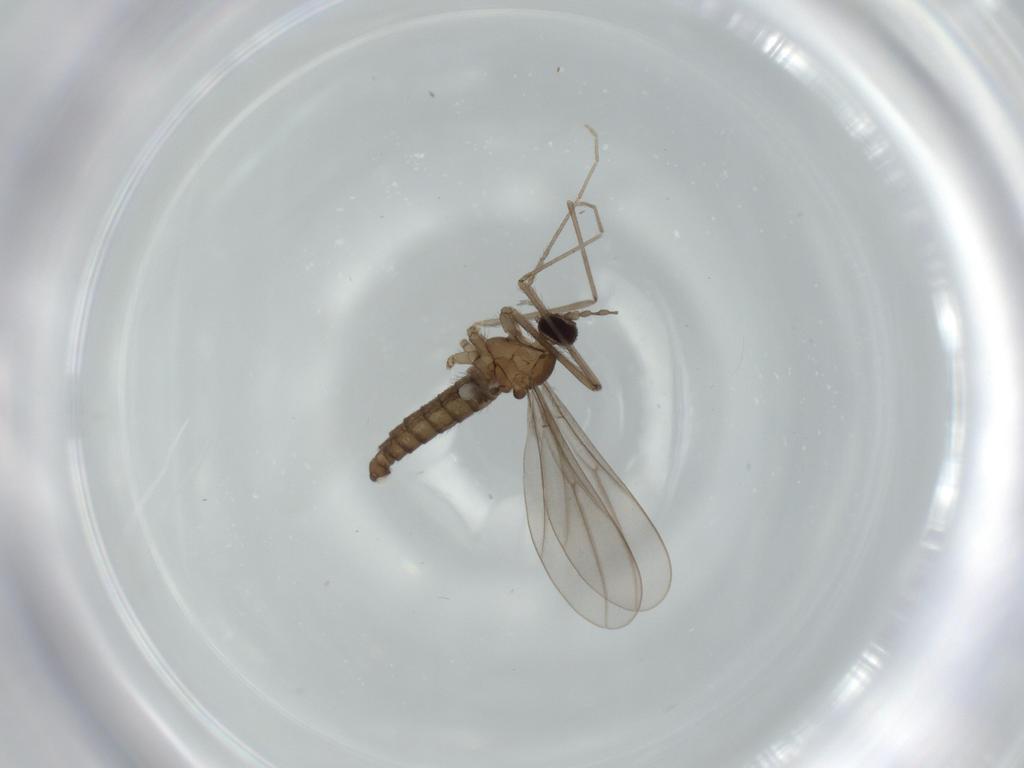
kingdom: Animalia
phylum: Arthropoda
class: Insecta
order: Diptera
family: Cecidomyiidae
